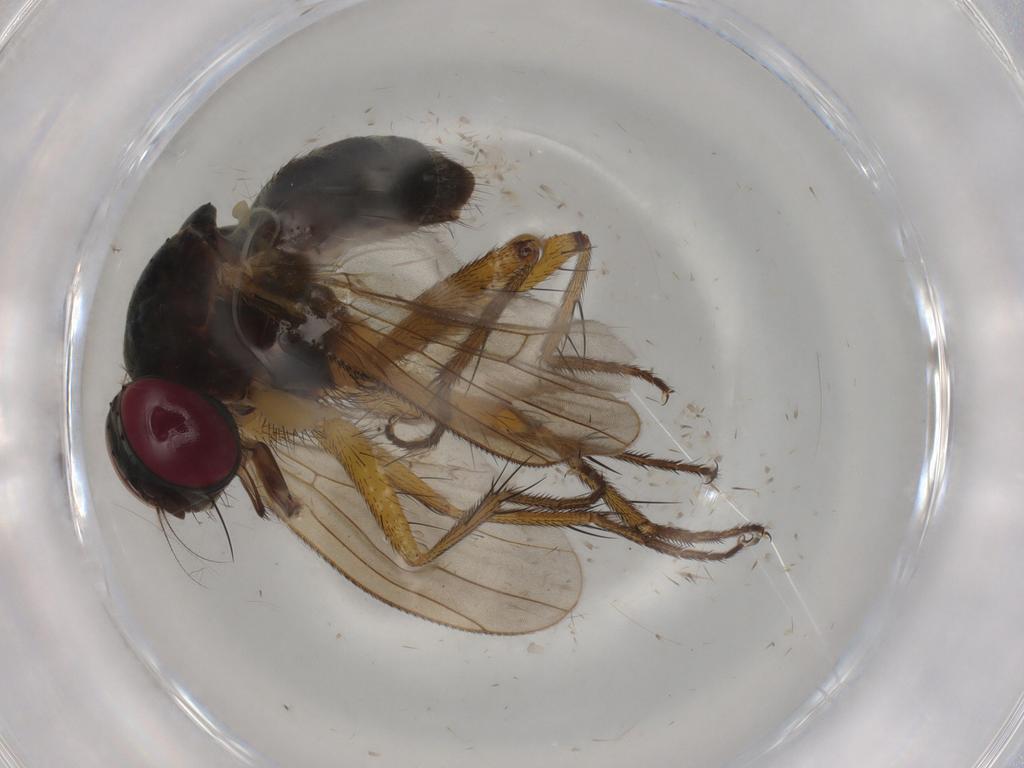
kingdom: Animalia
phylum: Arthropoda
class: Insecta
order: Diptera
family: Muscidae
